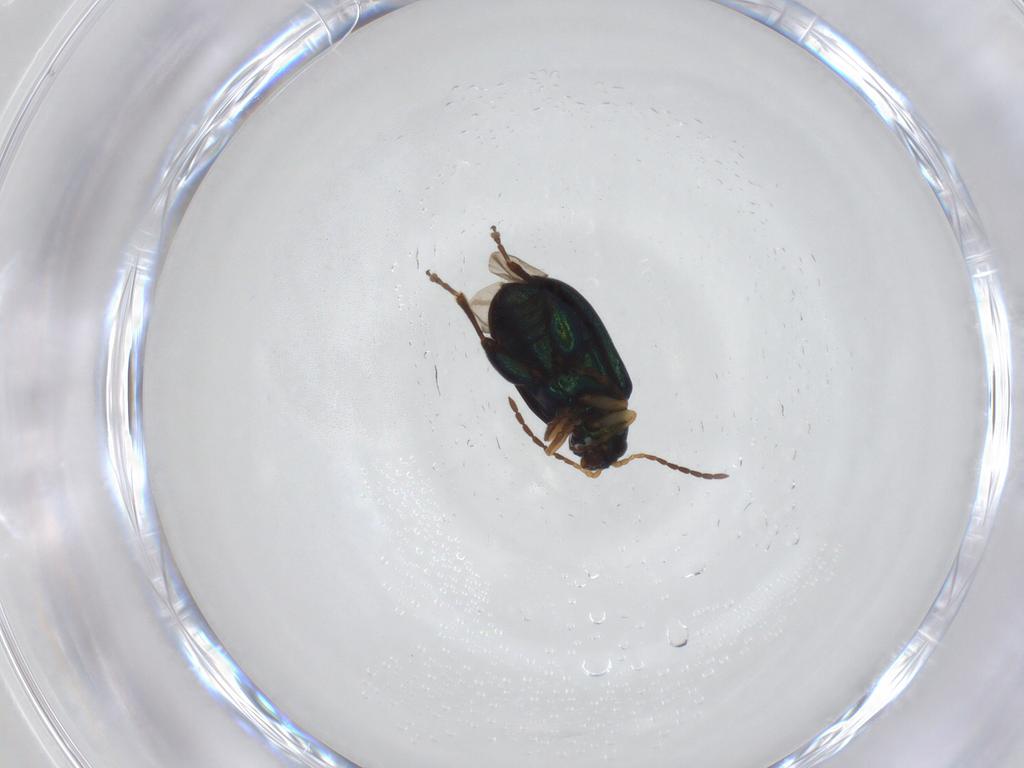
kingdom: Animalia
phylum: Arthropoda
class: Insecta
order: Coleoptera
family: Chrysomelidae
